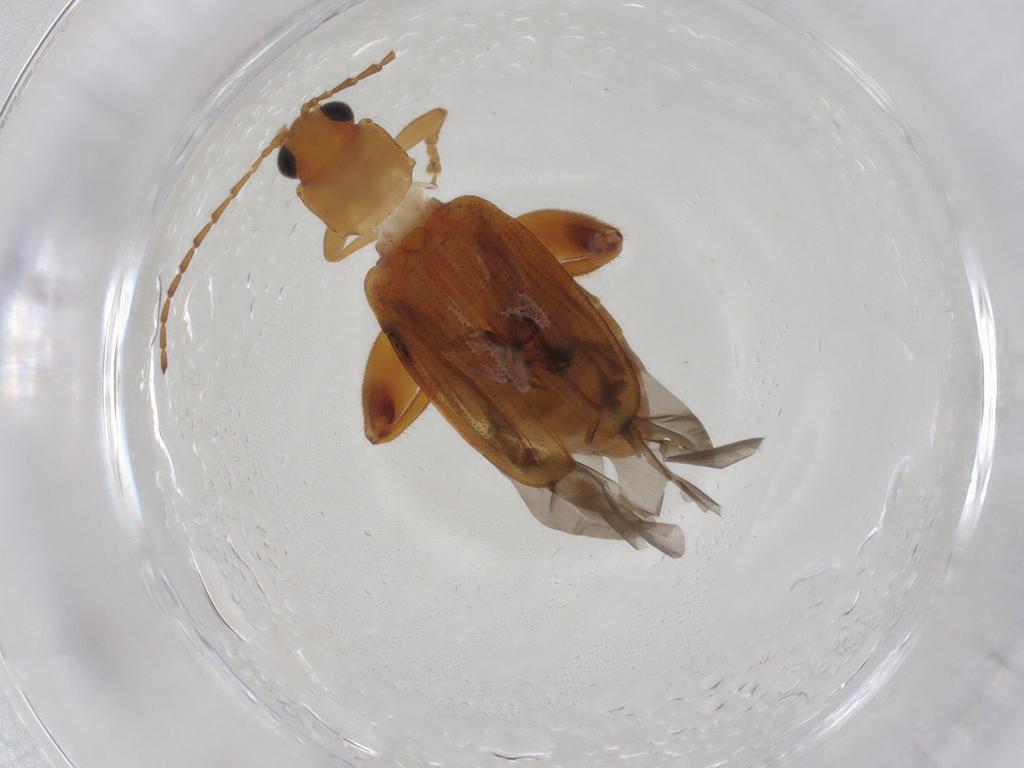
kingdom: Animalia
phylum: Arthropoda
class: Insecta
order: Coleoptera
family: Chrysomelidae
